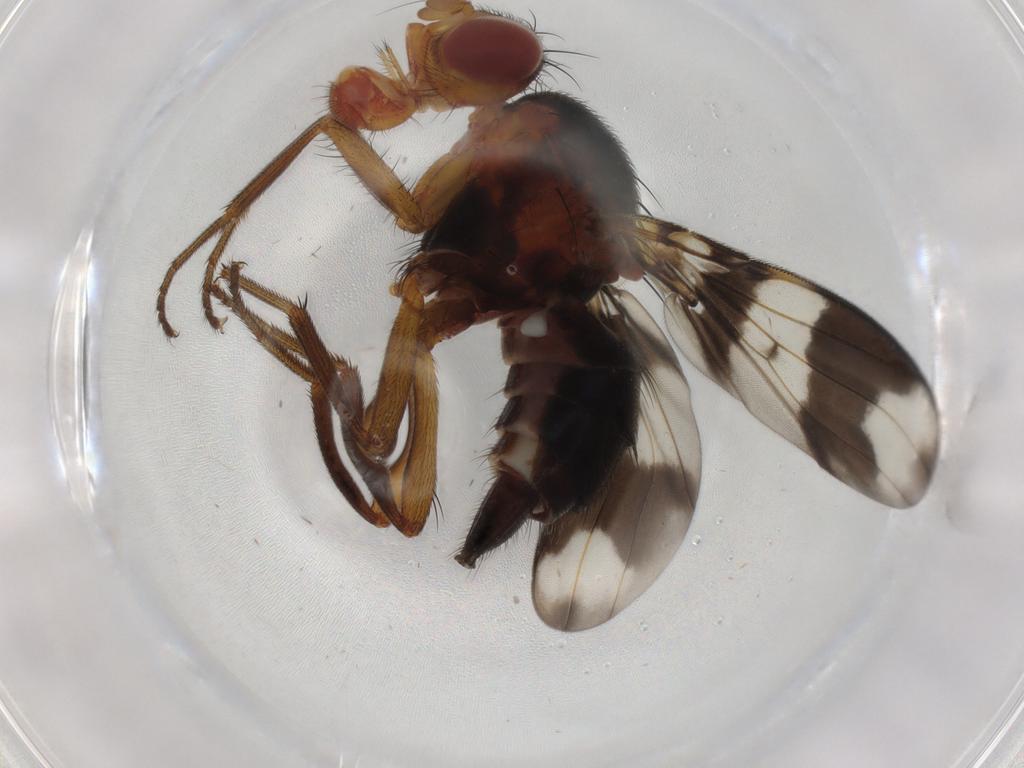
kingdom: Animalia
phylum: Arthropoda
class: Insecta
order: Diptera
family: Richardiidae
